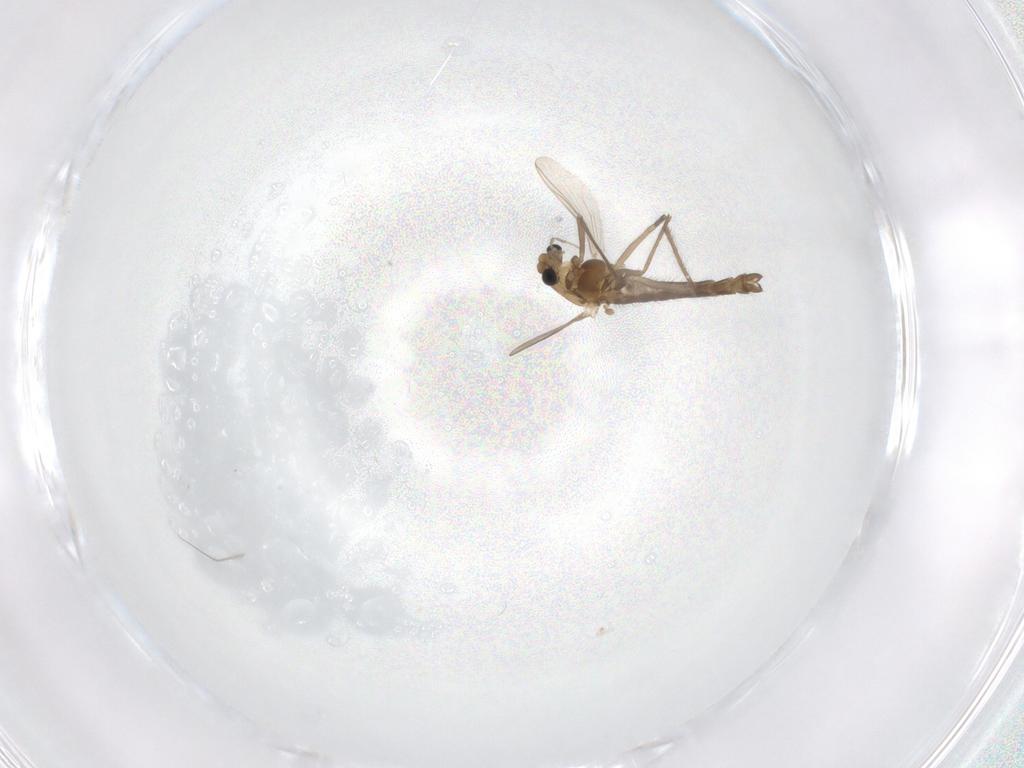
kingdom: Animalia
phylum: Arthropoda
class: Insecta
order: Diptera
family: Chironomidae
